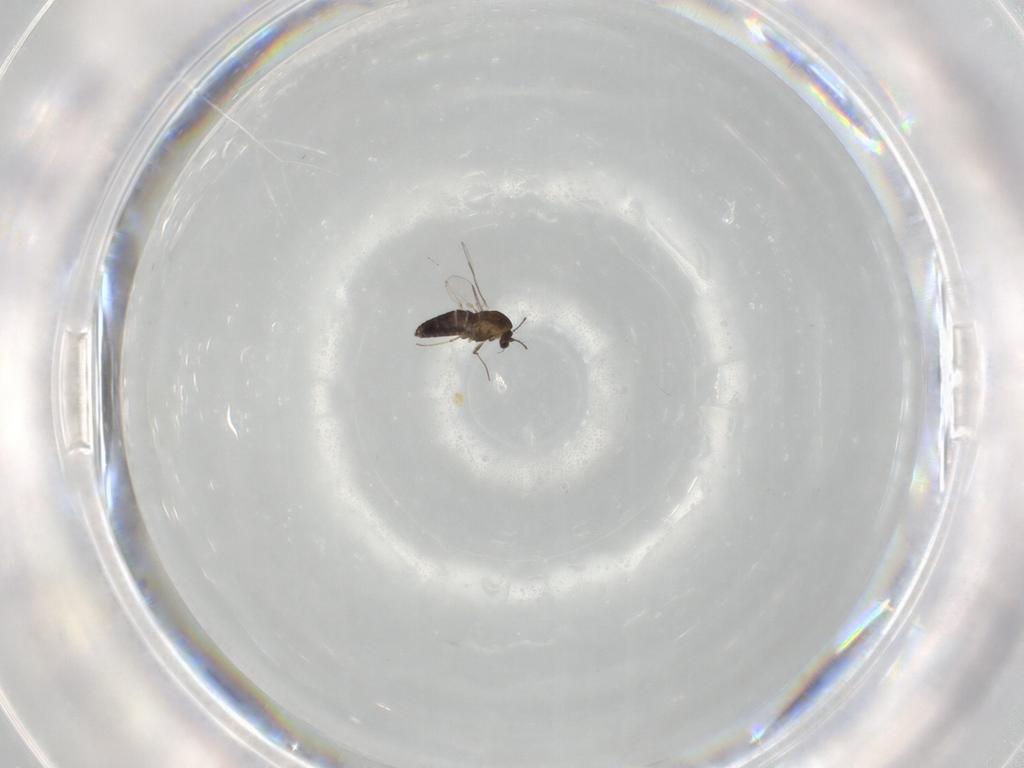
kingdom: Animalia
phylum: Arthropoda
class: Insecta
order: Diptera
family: Chironomidae
